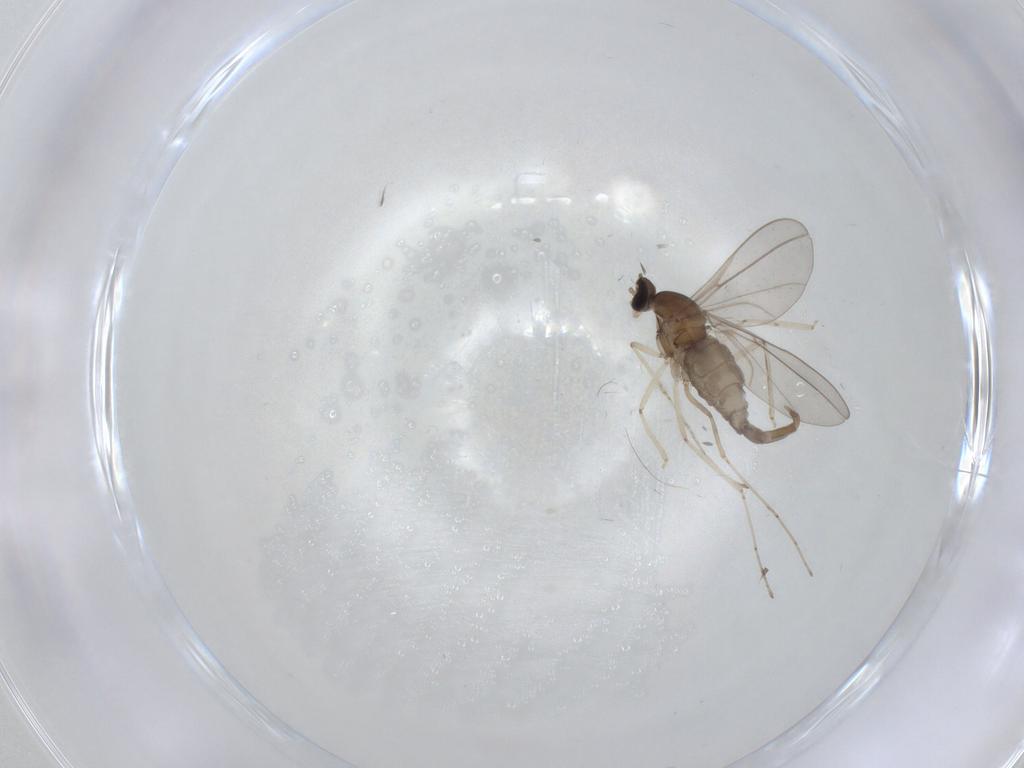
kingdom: Animalia
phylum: Arthropoda
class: Insecta
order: Diptera
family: Cecidomyiidae
